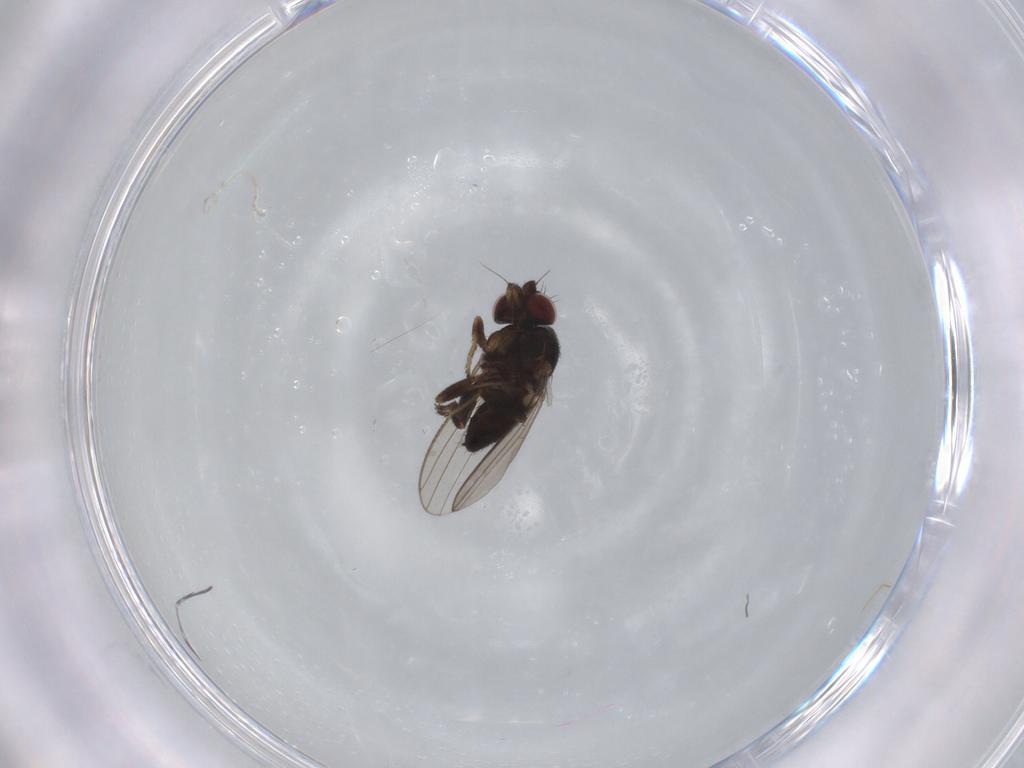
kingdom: Animalia
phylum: Arthropoda
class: Insecta
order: Diptera
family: Milichiidae
